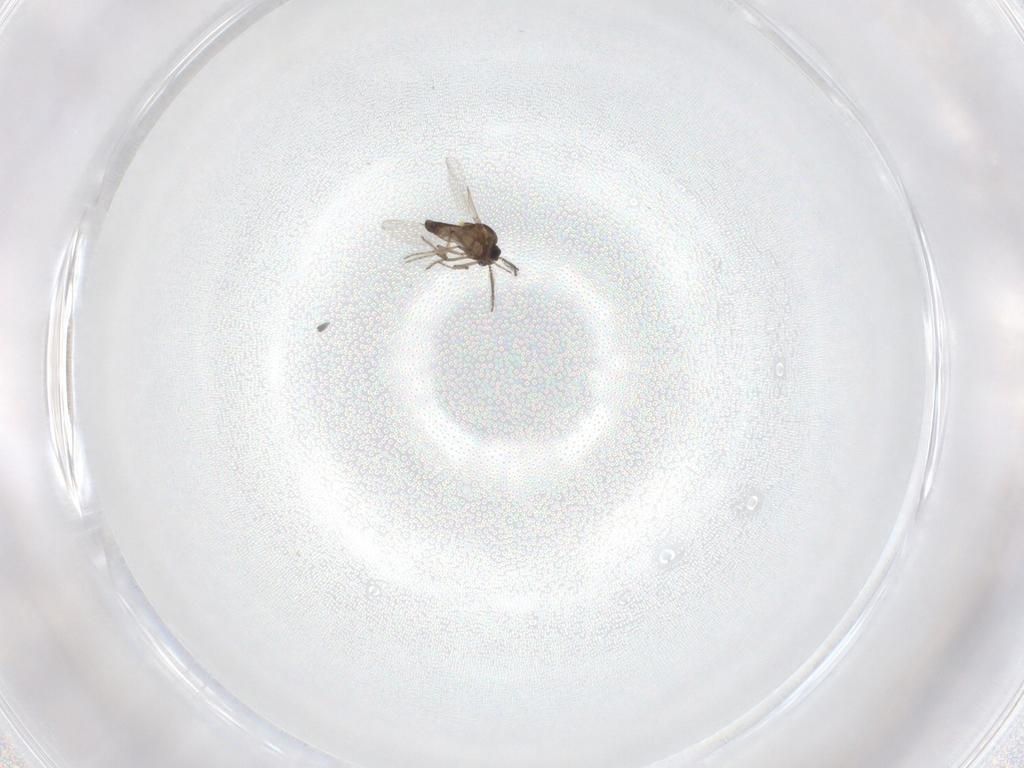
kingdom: Animalia
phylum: Arthropoda
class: Insecta
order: Diptera
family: Ceratopogonidae
